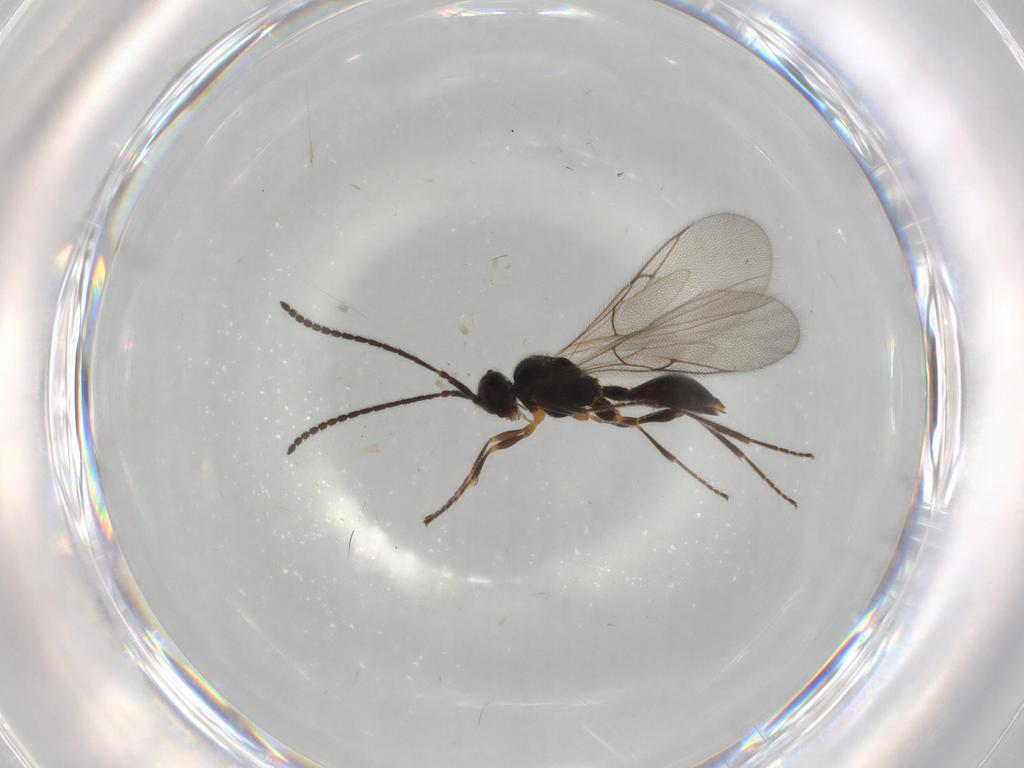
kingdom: Animalia
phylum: Arthropoda
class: Insecta
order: Hymenoptera
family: Diapriidae
